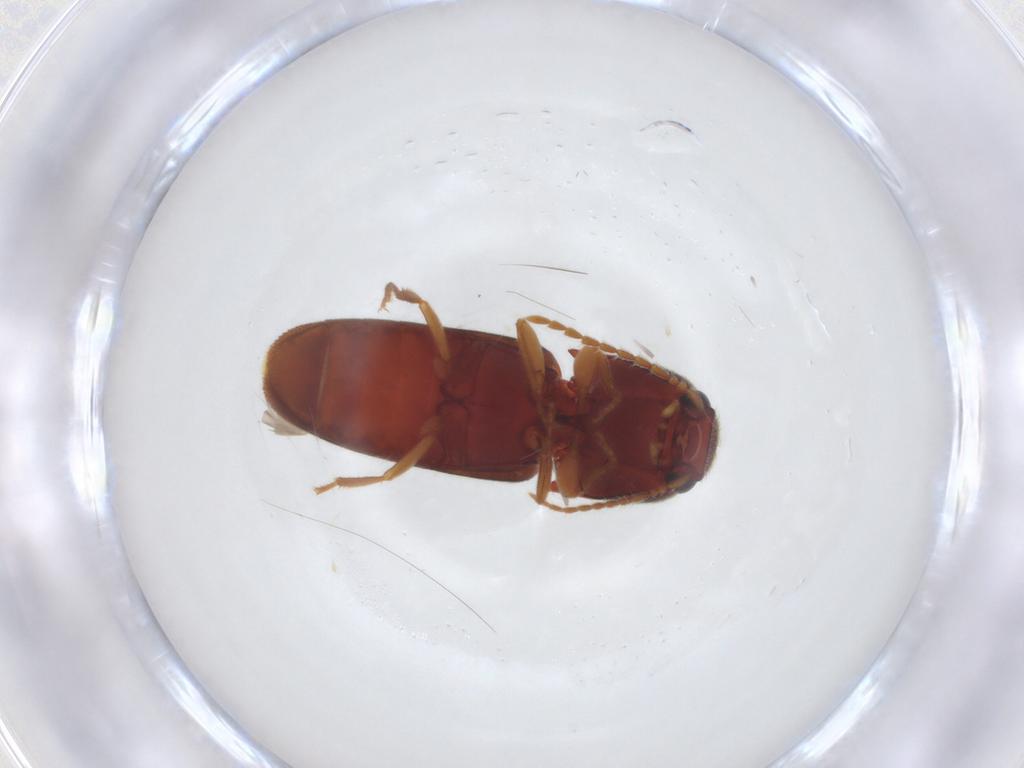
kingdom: Animalia
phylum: Arthropoda
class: Insecta
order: Coleoptera
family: Elateridae
